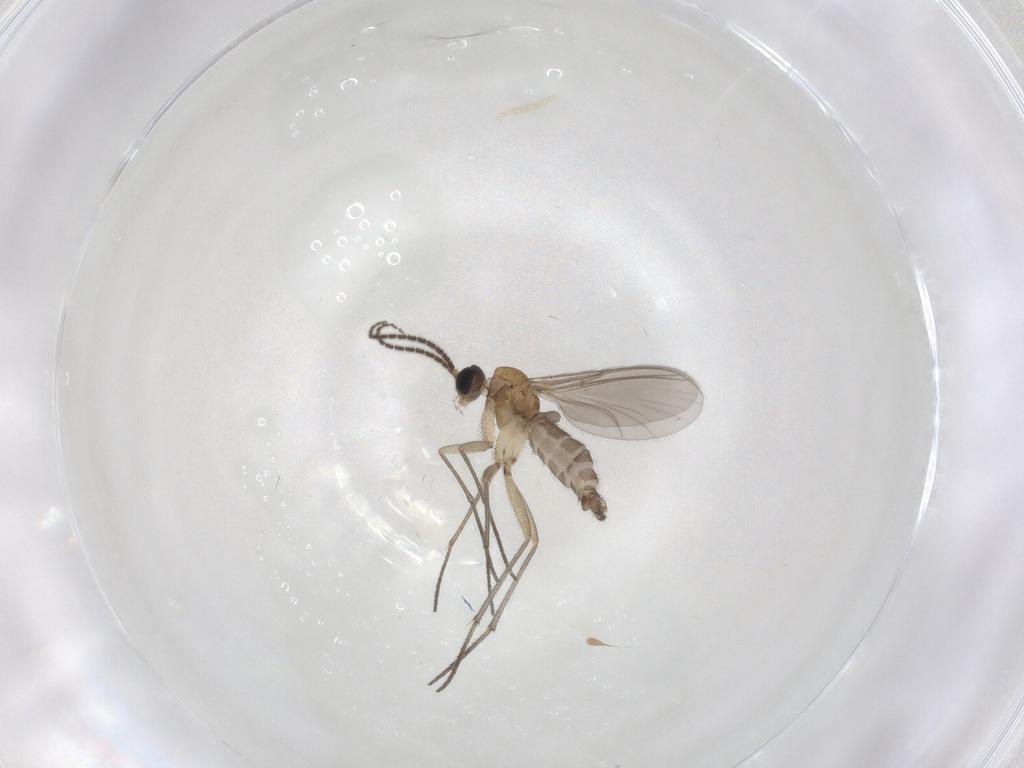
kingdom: Animalia
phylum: Arthropoda
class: Insecta
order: Diptera
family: Sciaridae
